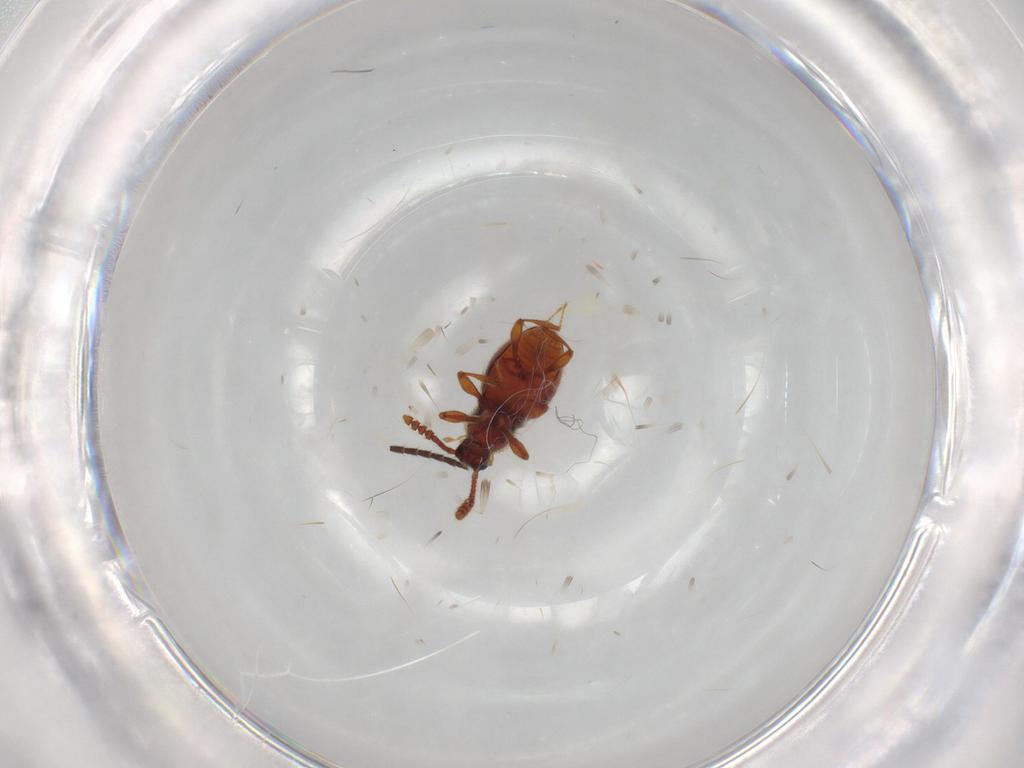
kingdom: Animalia
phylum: Arthropoda
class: Insecta
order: Coleoptera
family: Staphylinidae
